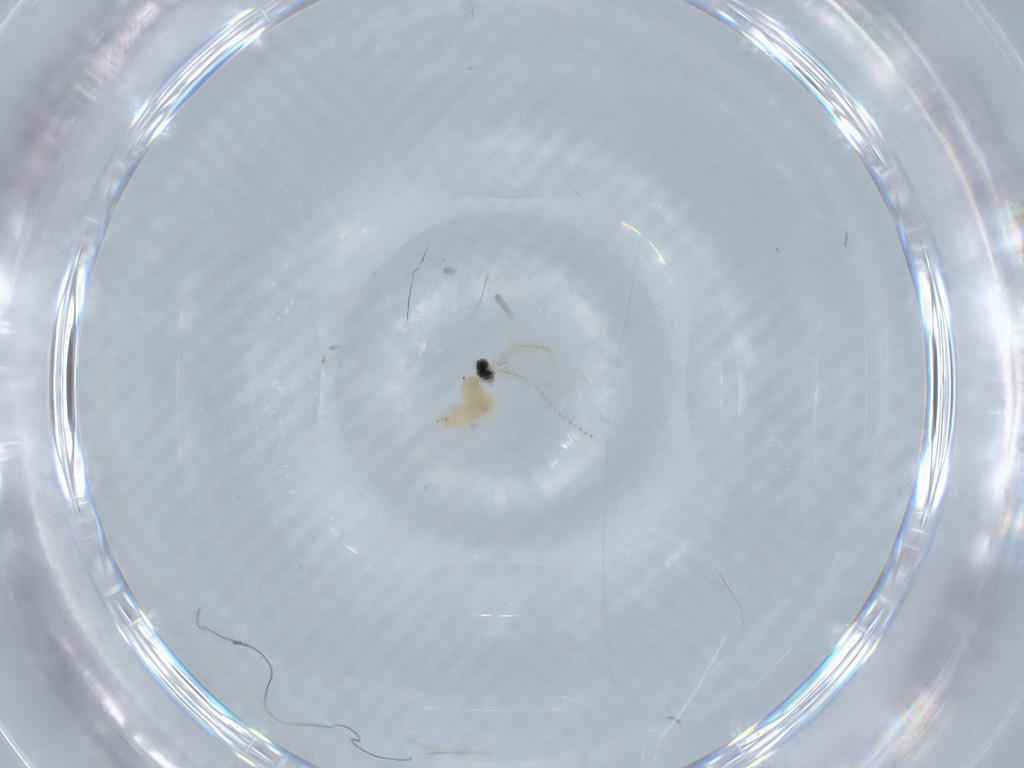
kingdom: Animalia
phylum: Arthropoda
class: Insecta
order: Diptera
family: Cecidomyiidae
